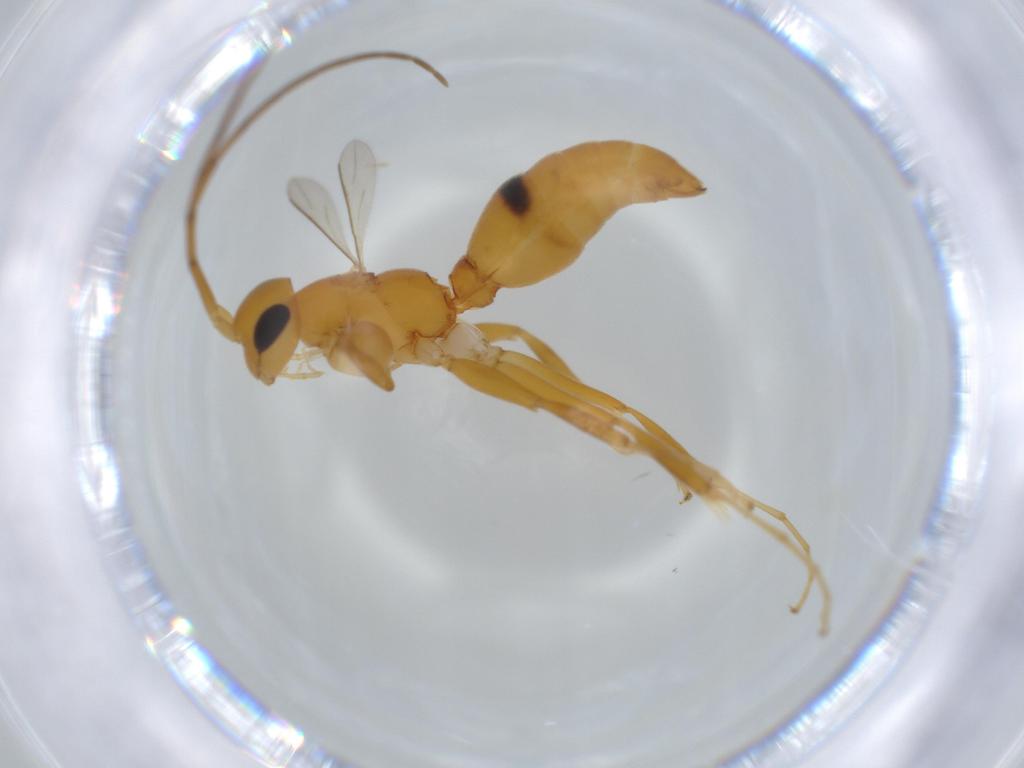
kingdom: Animalia
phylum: Arthropoda
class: Insecta
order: Hymenoptera
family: Rhopalosomatidae
